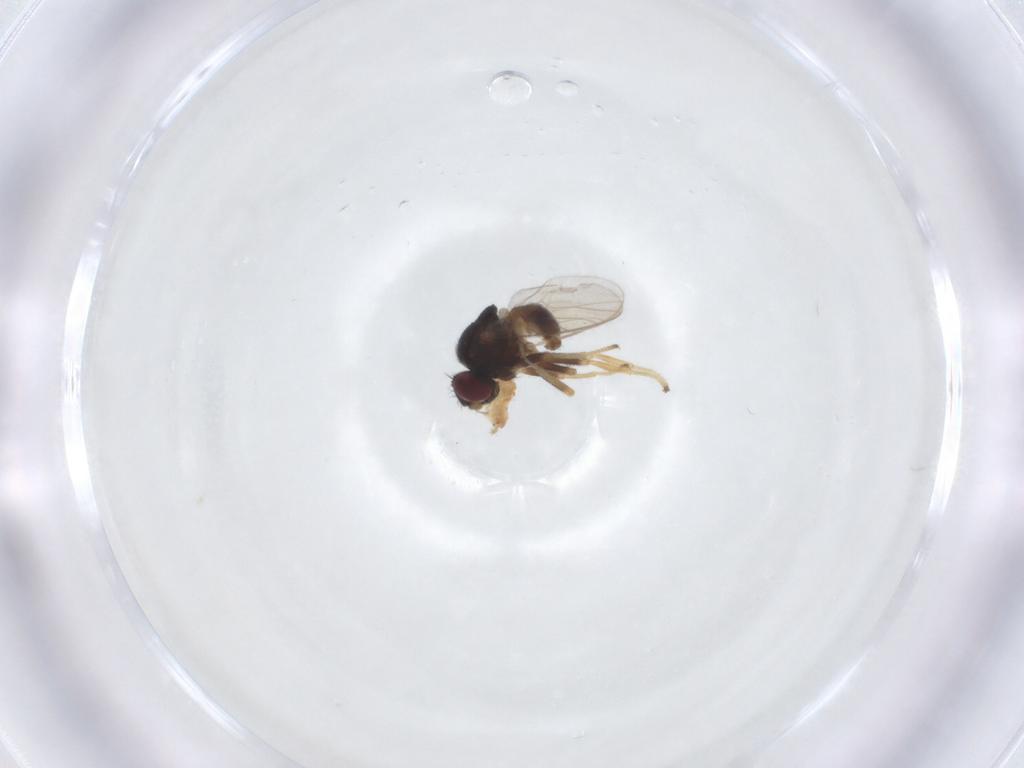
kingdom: Animalia
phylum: Arthropoda
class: Insecta
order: Diptera
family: Chloropidae
